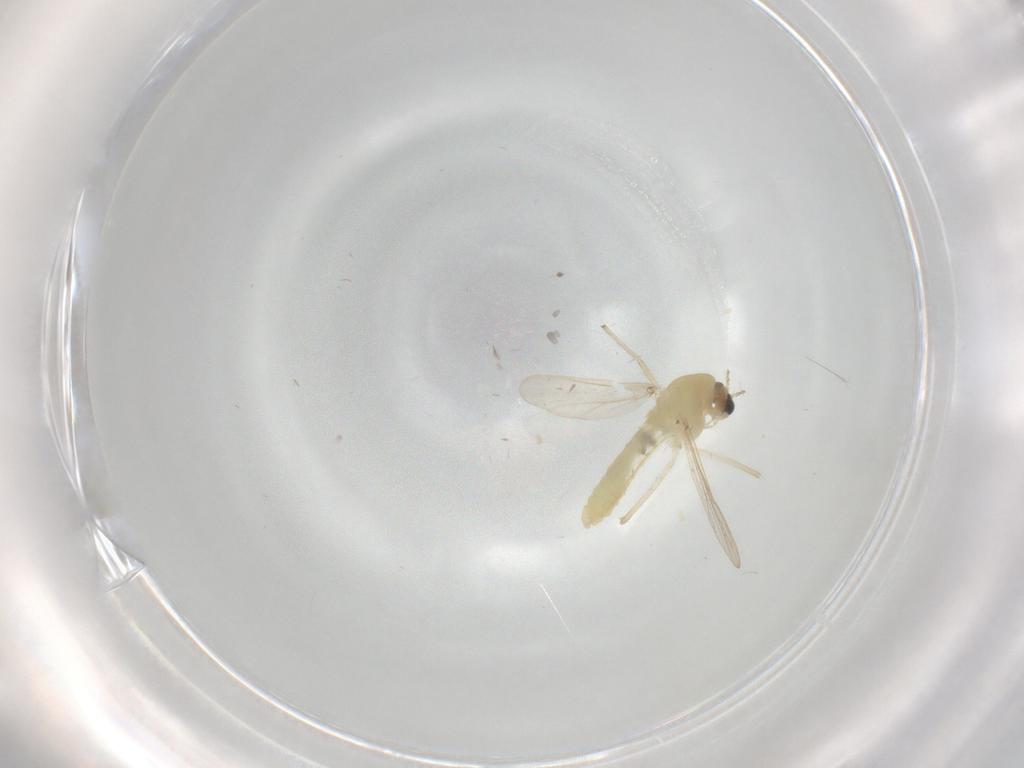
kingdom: Animalia
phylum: Arthropoda
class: Insecta
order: Diptera
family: Chironomidae
